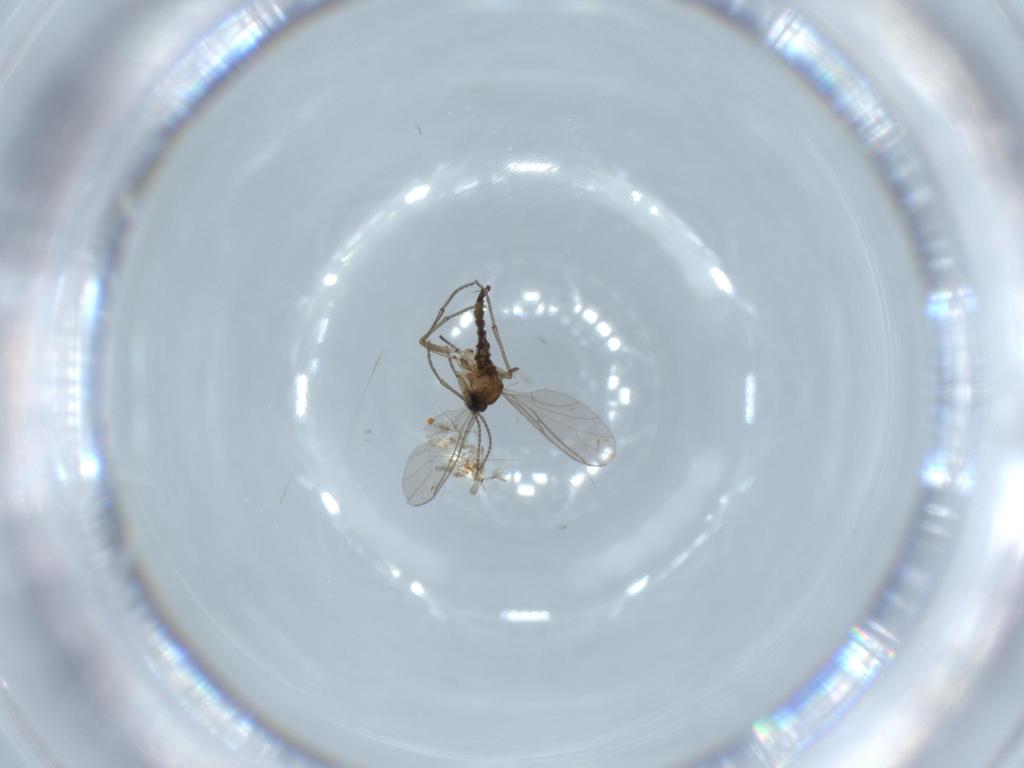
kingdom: Animalia
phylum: Arthropoda
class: Insecta
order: Diptera
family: Sciaridae
